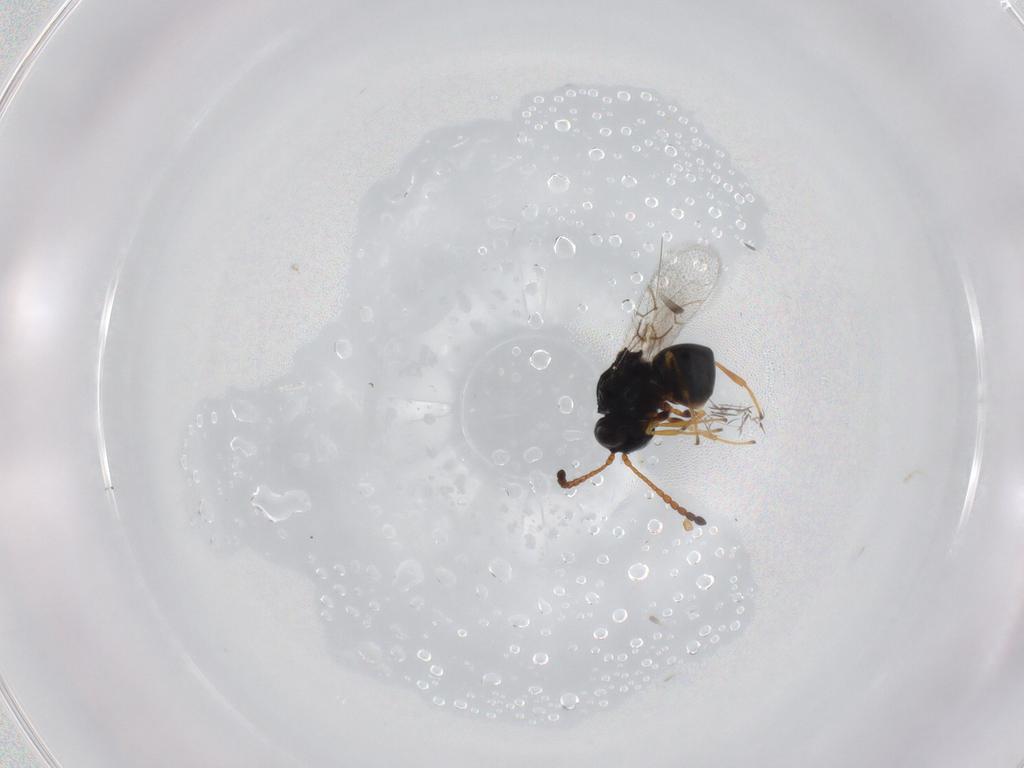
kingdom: Animalia
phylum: Arthropoda
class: Insecta
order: Hymenoptera
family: Figitidae
